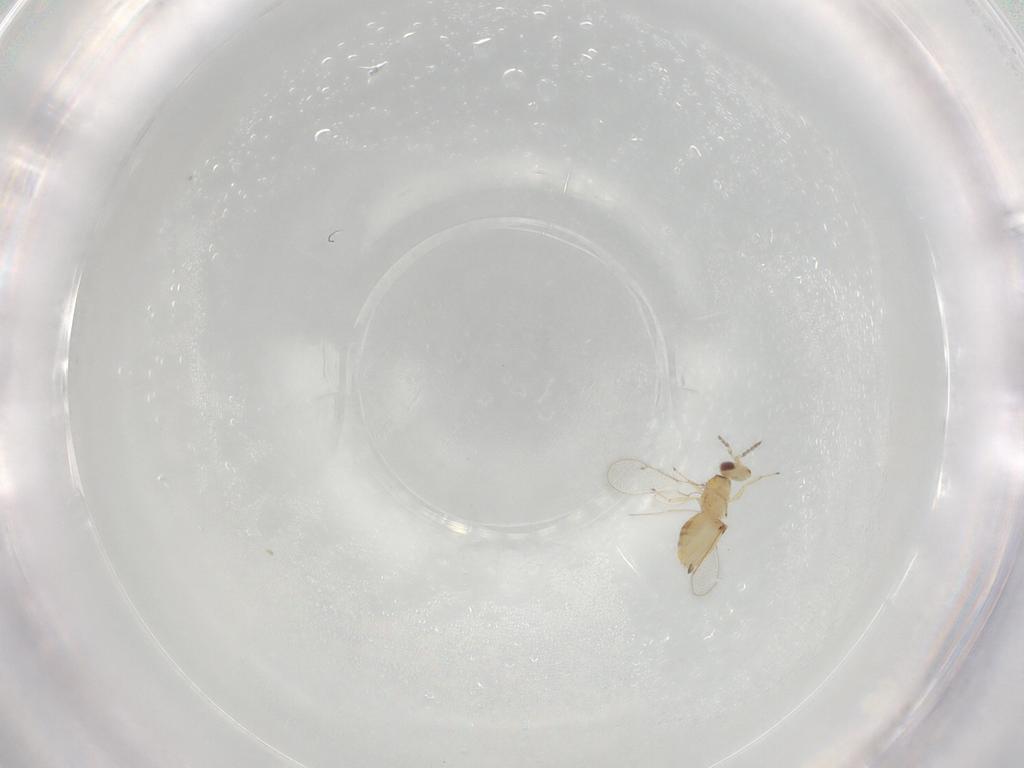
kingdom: Animalia
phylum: Arthropoda
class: Insecta
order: Hymenoptera
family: Eulophidae
